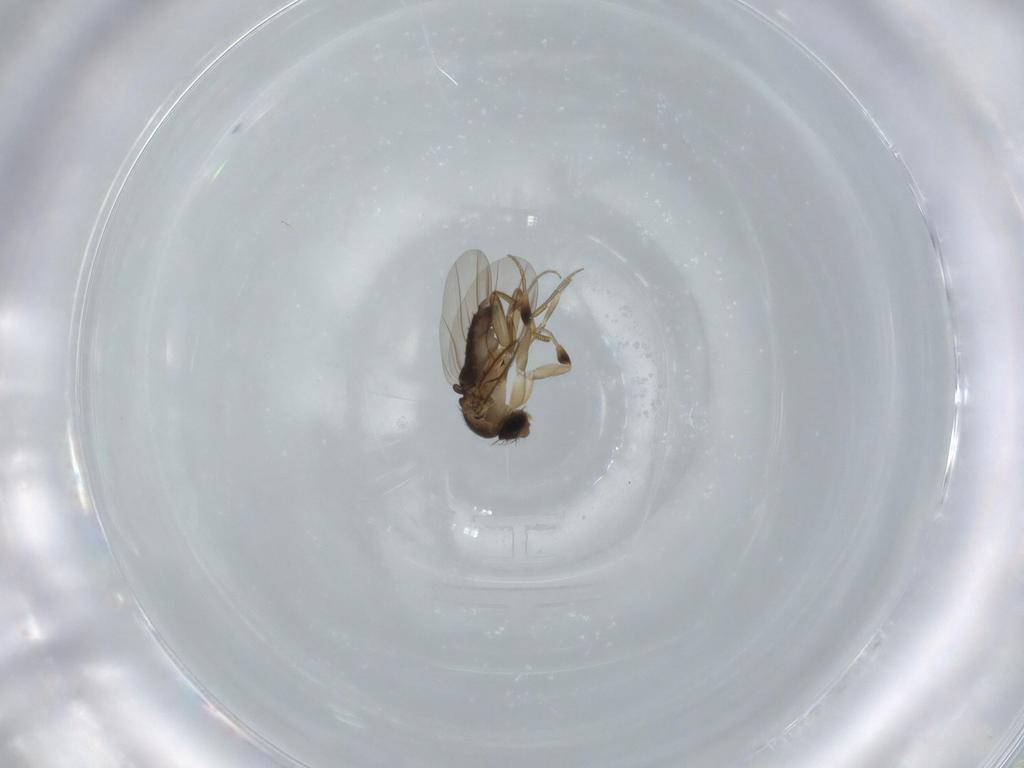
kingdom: Animalia
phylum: Arthropoda
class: Insecta
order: Diptera
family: Phoridae
